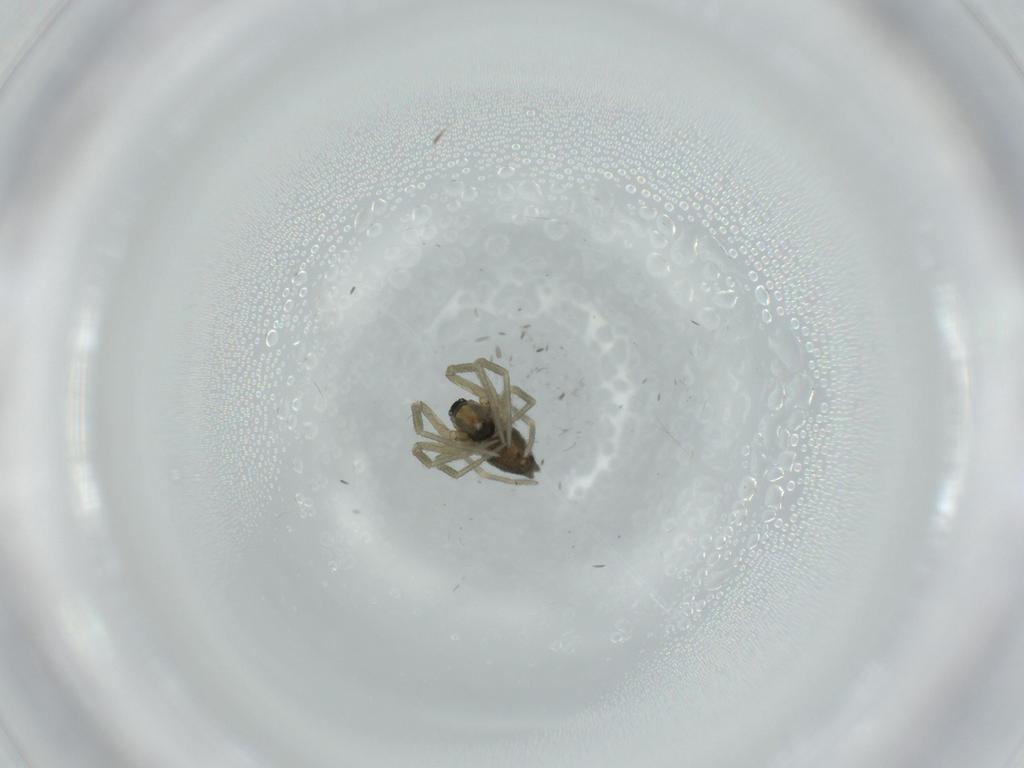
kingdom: Animalia
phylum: Arthropoda
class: Arachnida
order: Araneae
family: Linyphiidae
